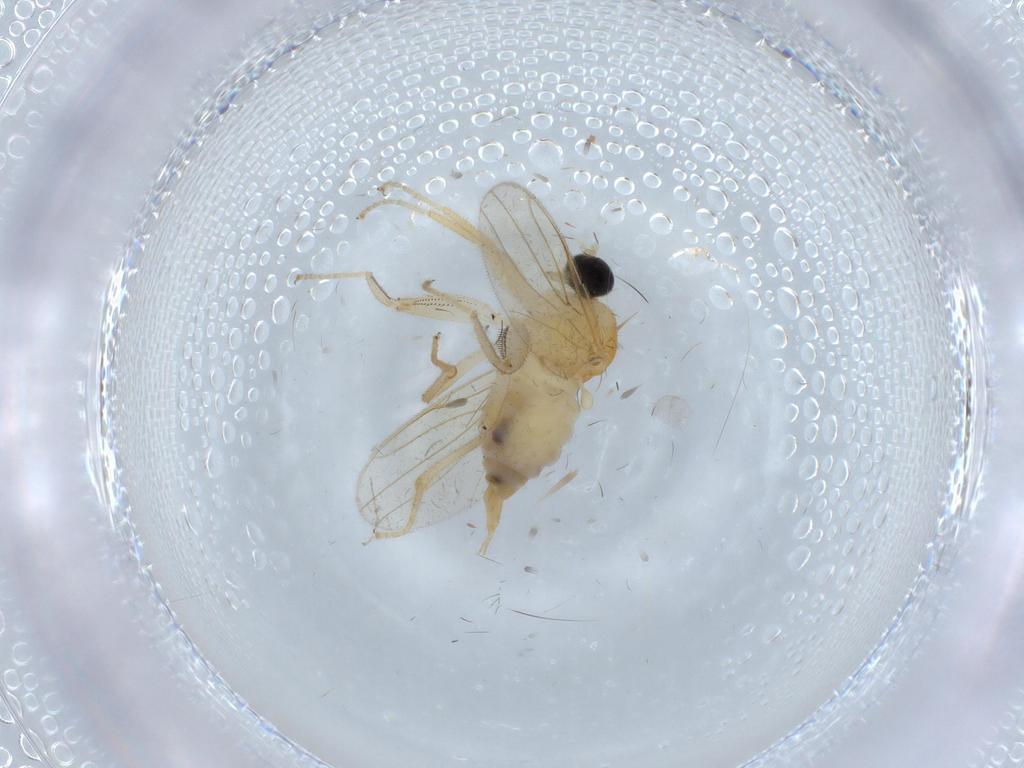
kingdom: Animalia
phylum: Arthropoda
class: Insecta
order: Diptera
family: Chironomidae
